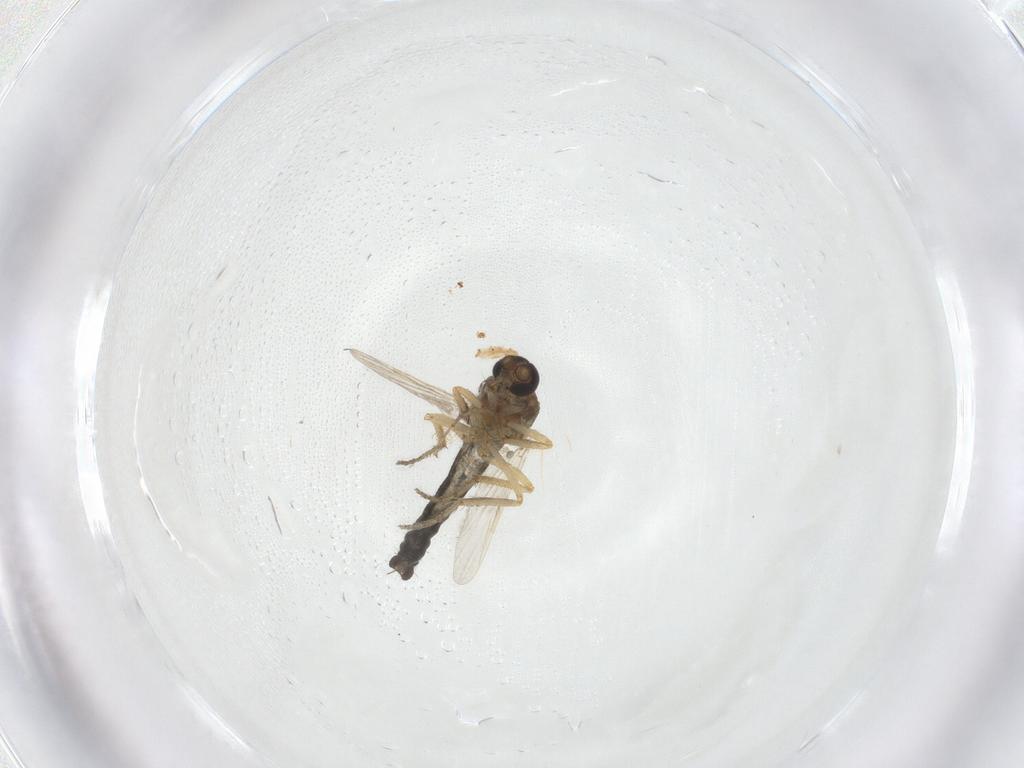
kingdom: Animalia
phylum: Arthropoda
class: Insecta
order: Diptera
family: Ceratopogonidae
